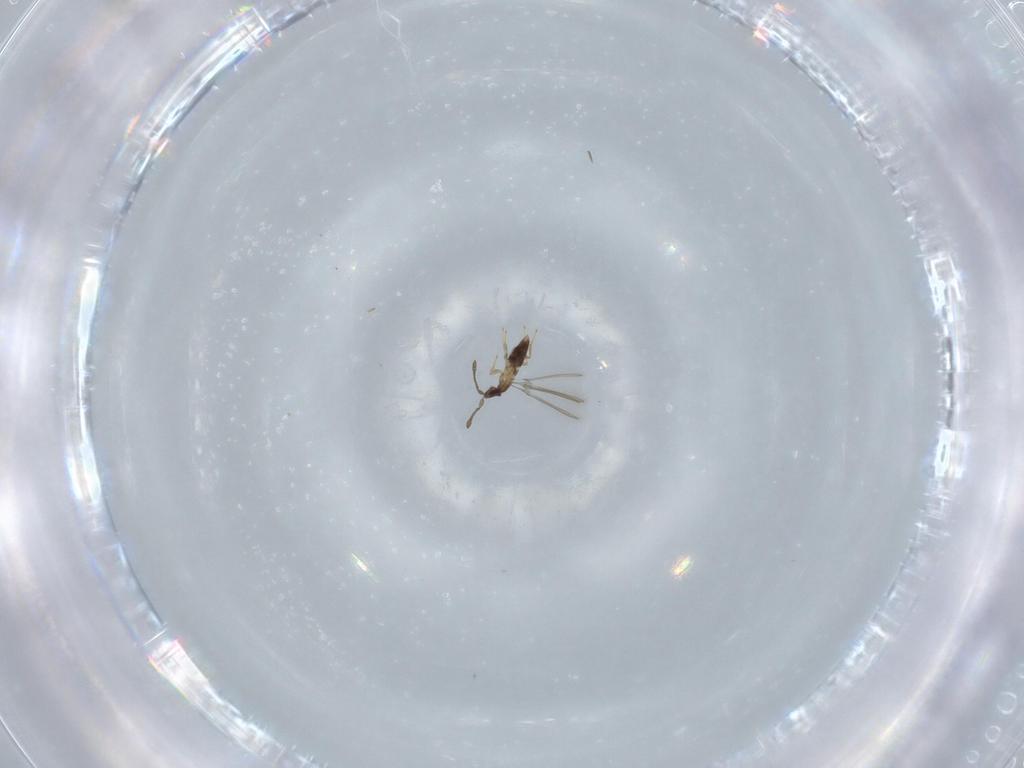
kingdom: Animalia
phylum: Arthropoda
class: Insecta
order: Hymenoptera
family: Mymaridae
